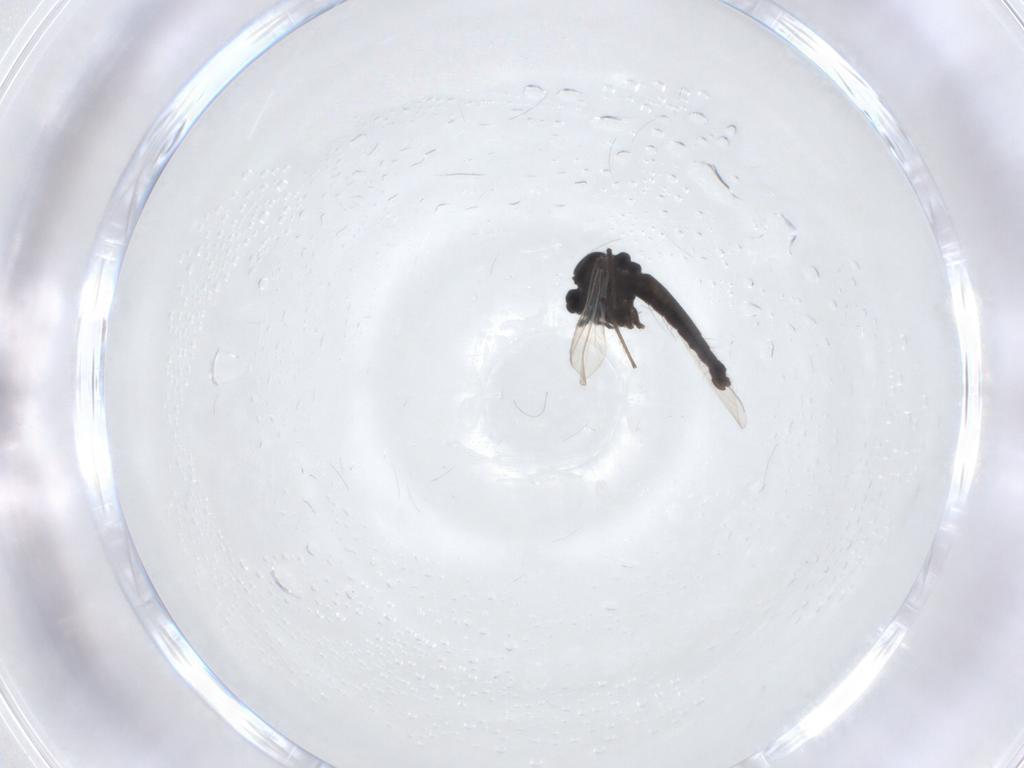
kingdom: Animalia
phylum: Arthropoda
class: Insecta
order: Diptera
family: Chironomidae
